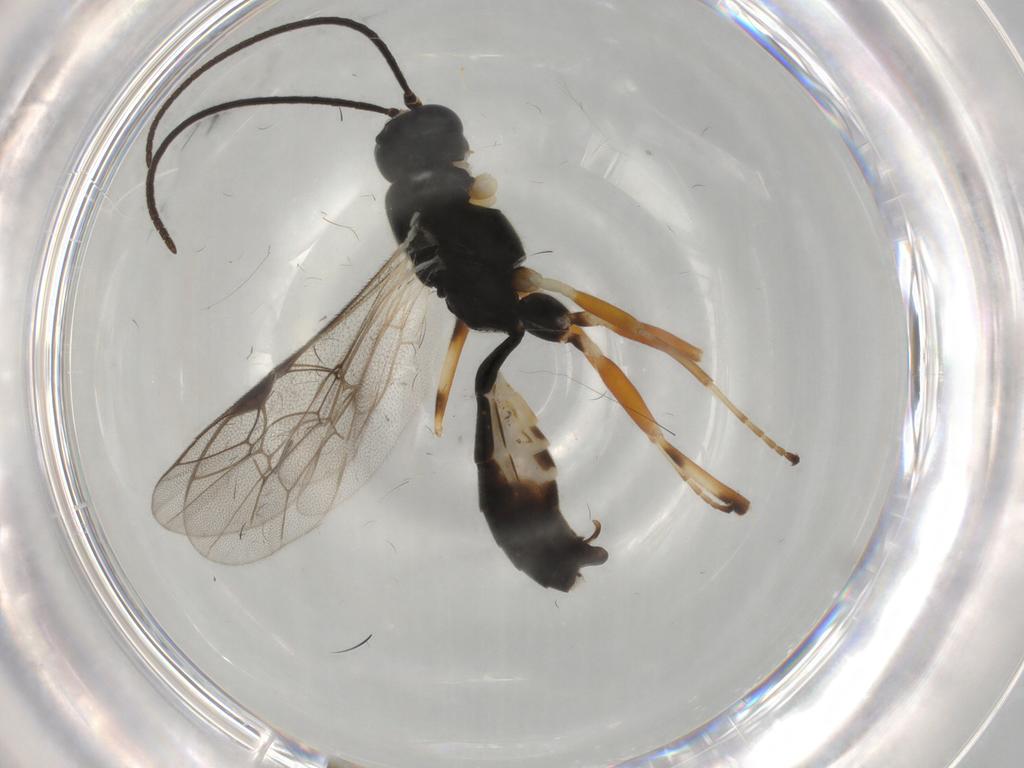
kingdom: Animalia
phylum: Arthropoda
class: Insecta
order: Hymenoptera
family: Ichneumonidae
